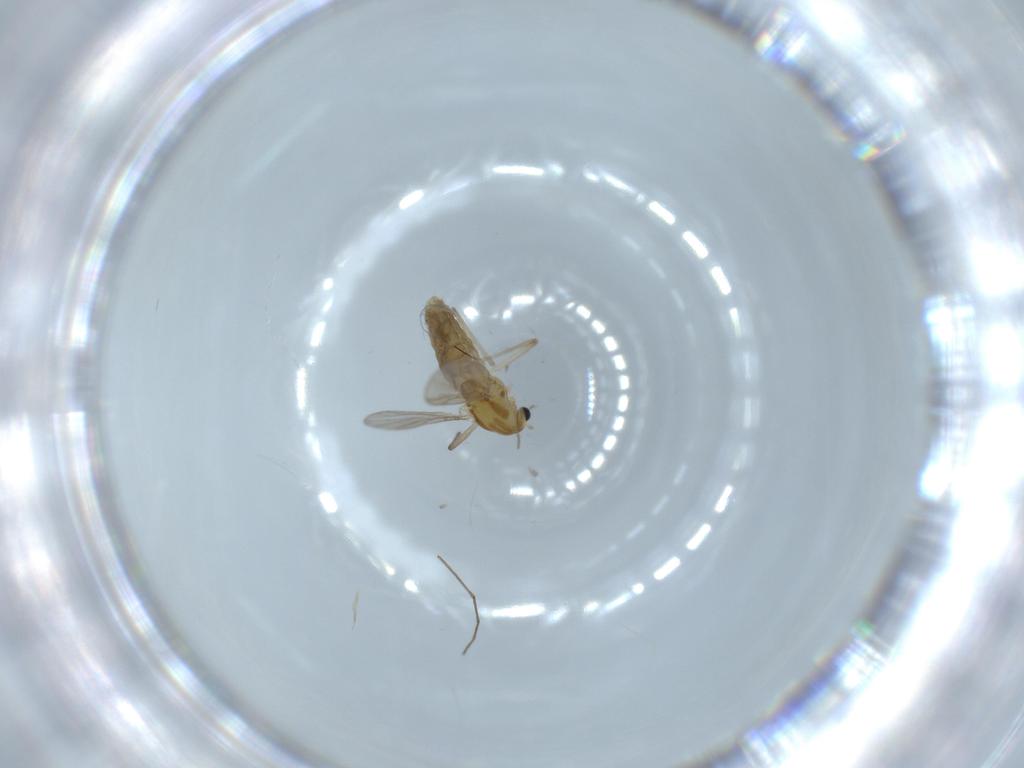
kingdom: Animalia
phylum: Arthropoda
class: Insecta
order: Diptera
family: Chironomidae
